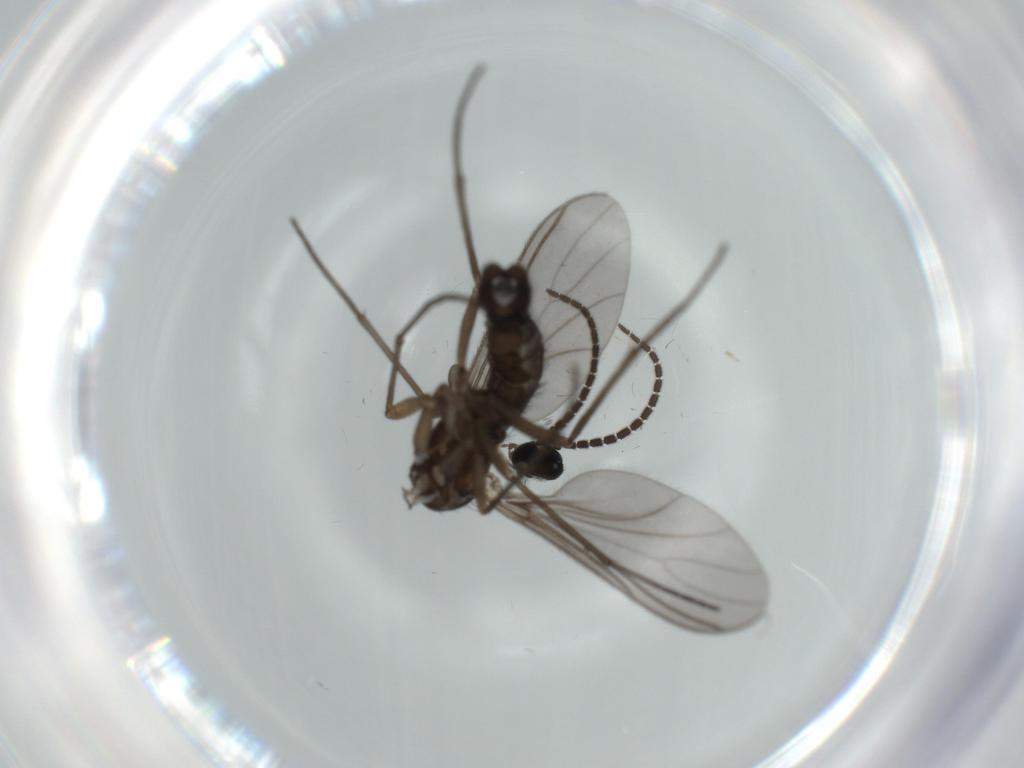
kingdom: Animalia
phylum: Arthropoda
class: Insecta
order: Diptera
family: Sciaridae
